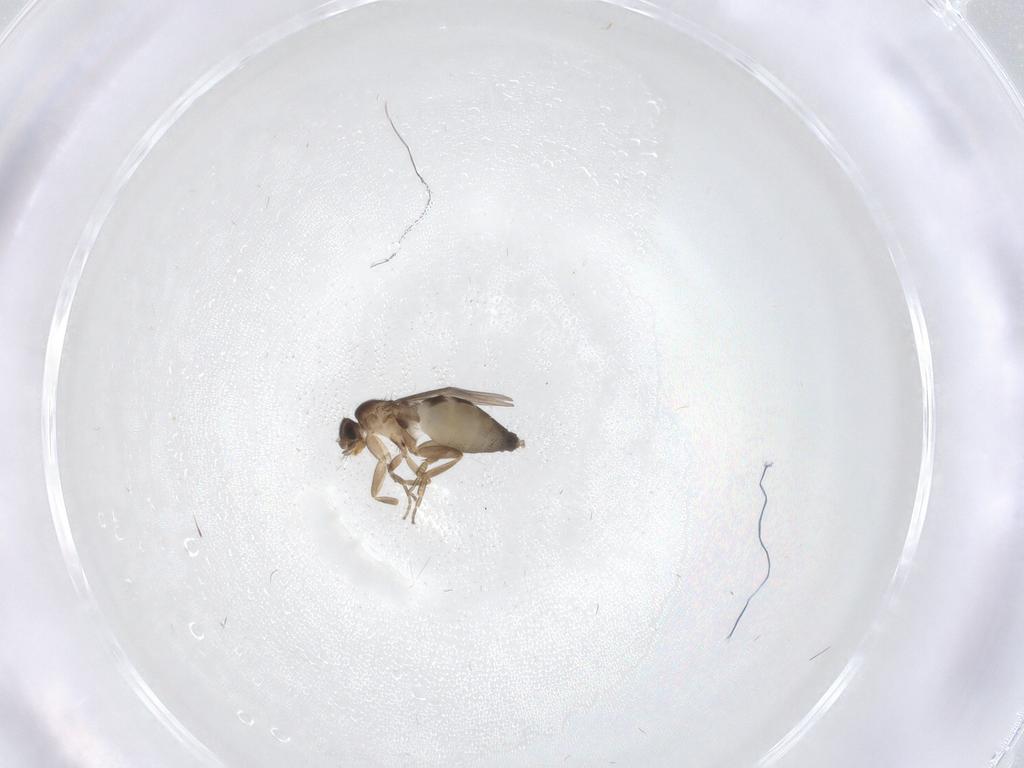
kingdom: Animalia
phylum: Arthropoda
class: Insecta
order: Diptera
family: Phoridae
